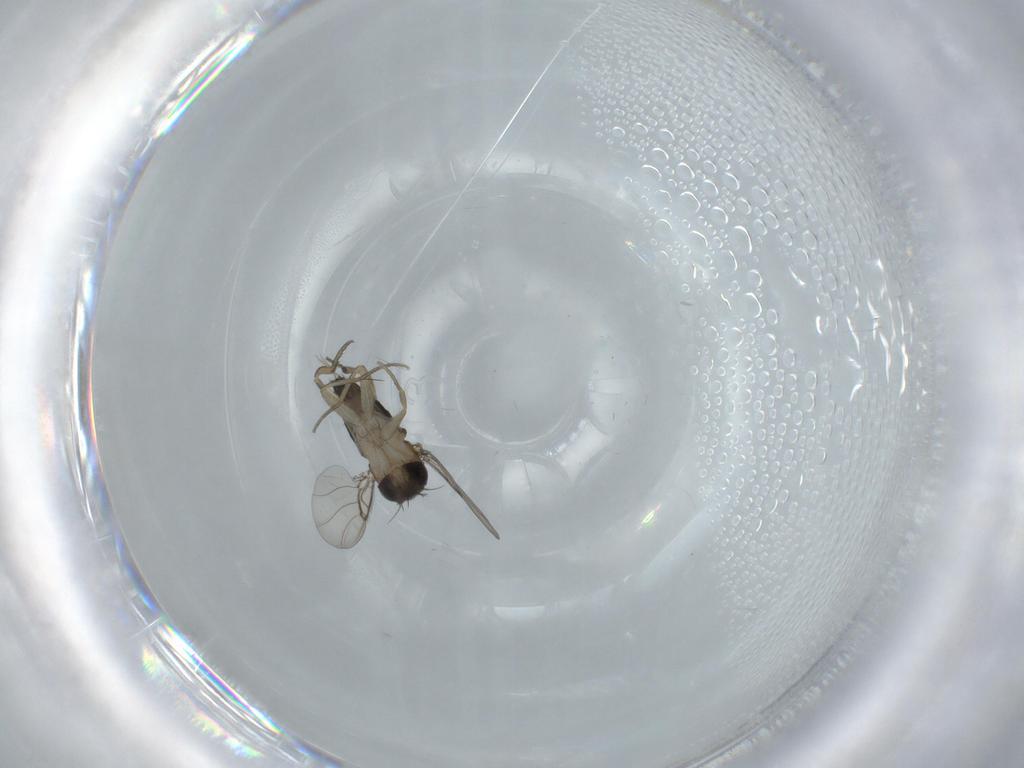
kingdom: Animalia
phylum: Arthropoda
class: Insecta
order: Diptera
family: Phoridae
